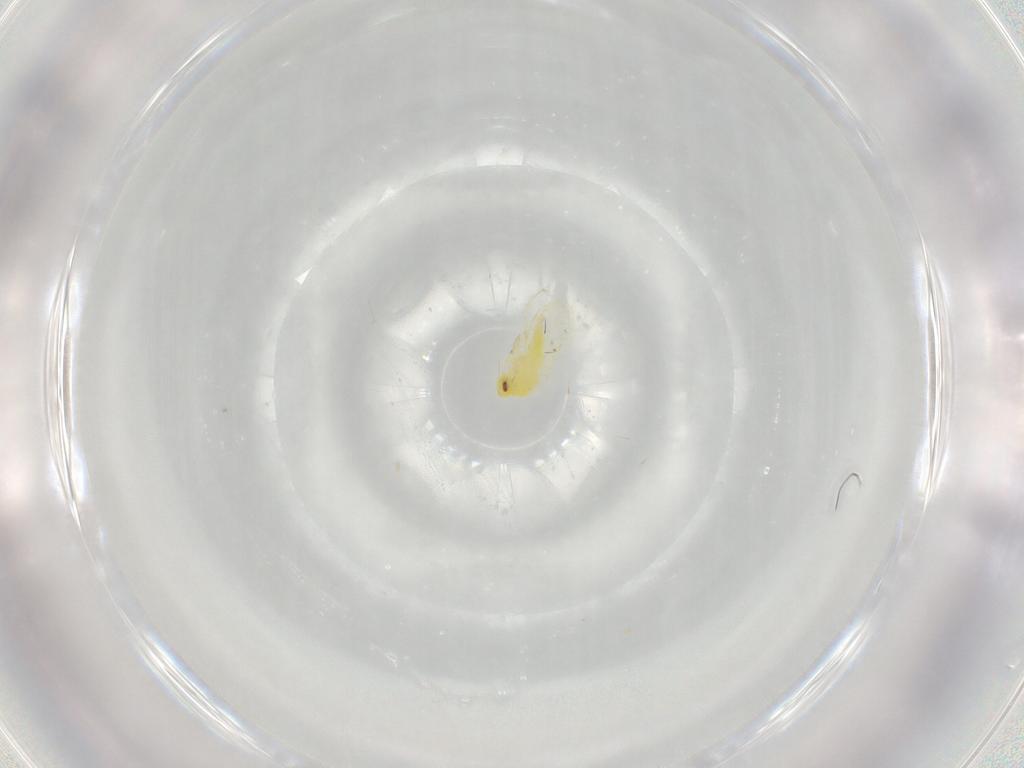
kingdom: Animalia
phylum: Arthropoda
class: Insecta
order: Hemiptera
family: Aleyrodidae
